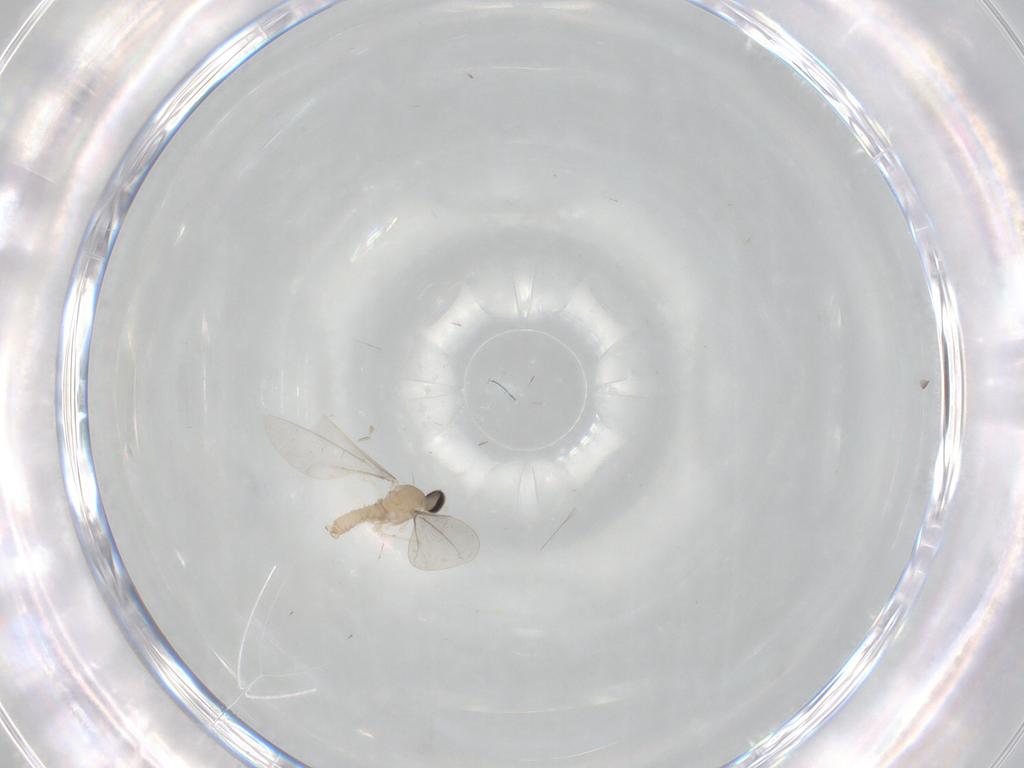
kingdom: Animalia
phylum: Arthropoda
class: Insecta
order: Diptera
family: Cecidomyiidae
